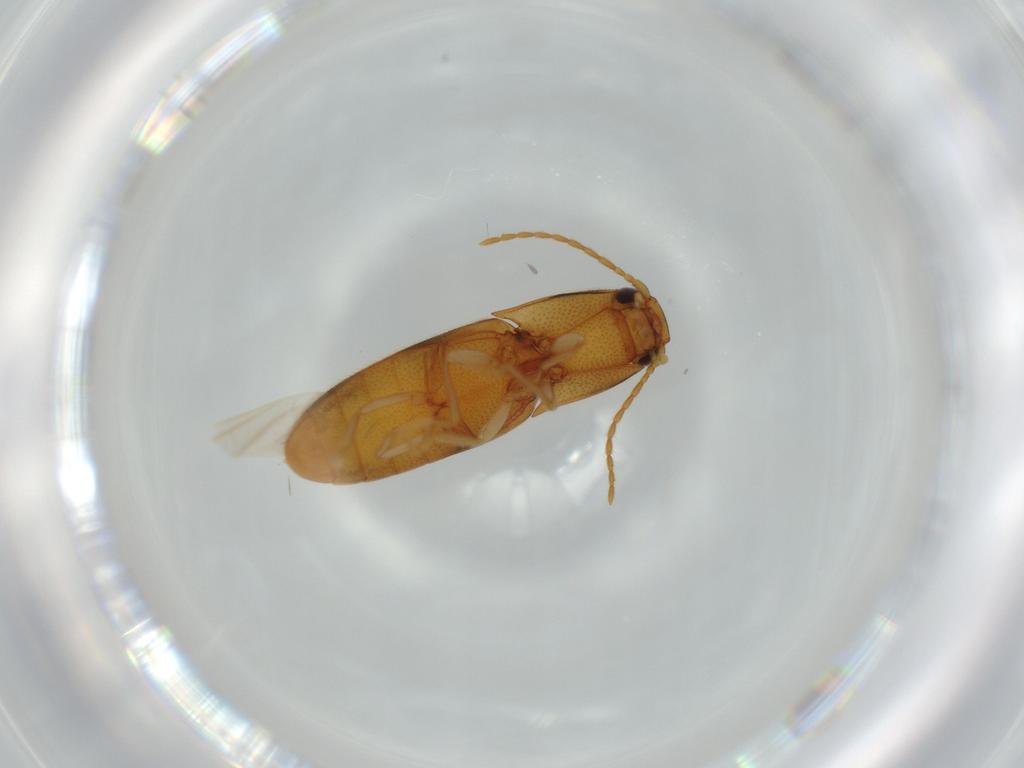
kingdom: Animalia
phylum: Arthropoda
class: Insecta
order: Coleoptera
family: Elateridae
